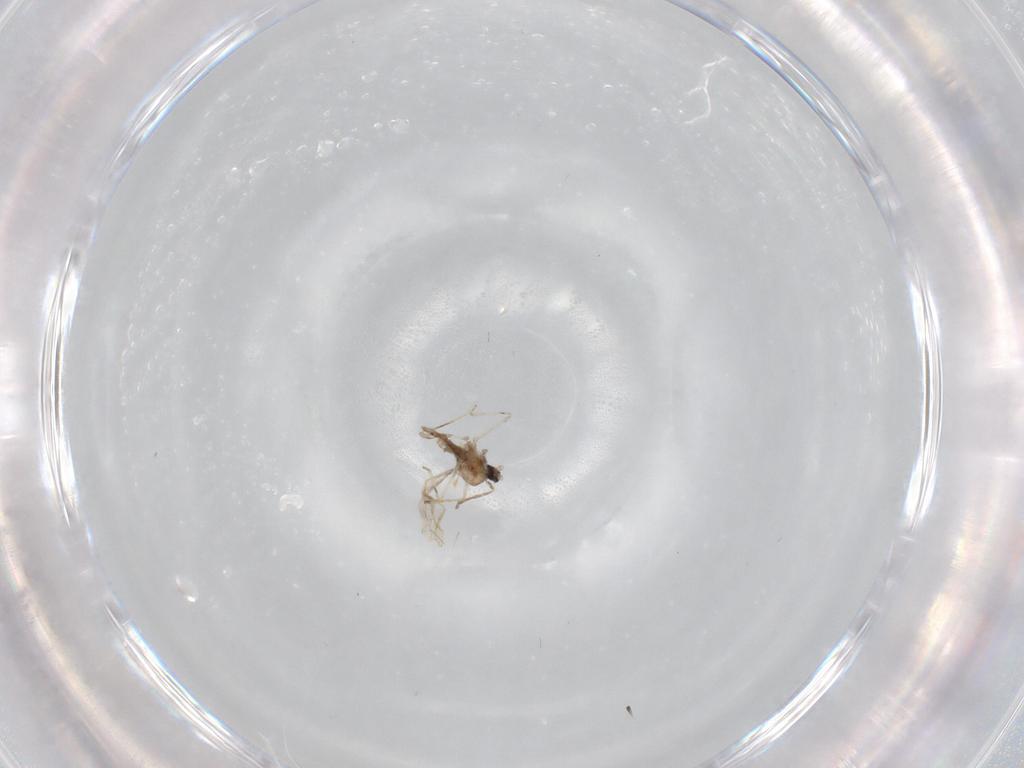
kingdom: Animalia
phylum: Arthropoda
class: Insecta
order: Diptera
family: Cecidomyiidae
